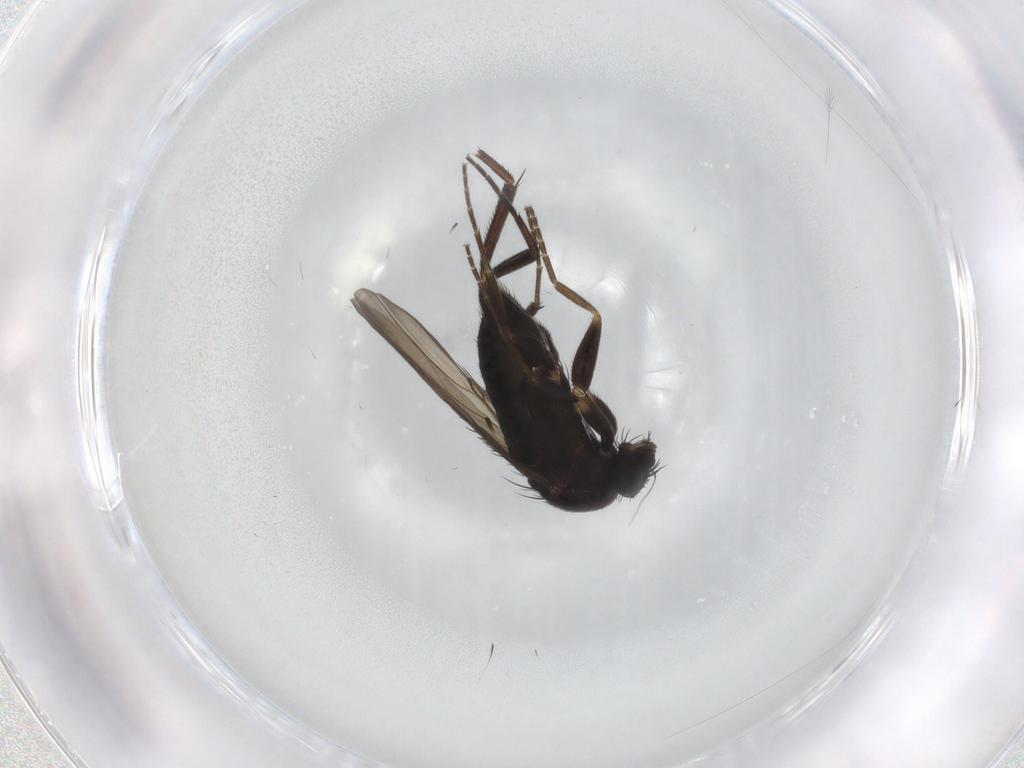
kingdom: Animalia
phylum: Arthropoda
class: Insecta
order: Diptera
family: Phoridae
